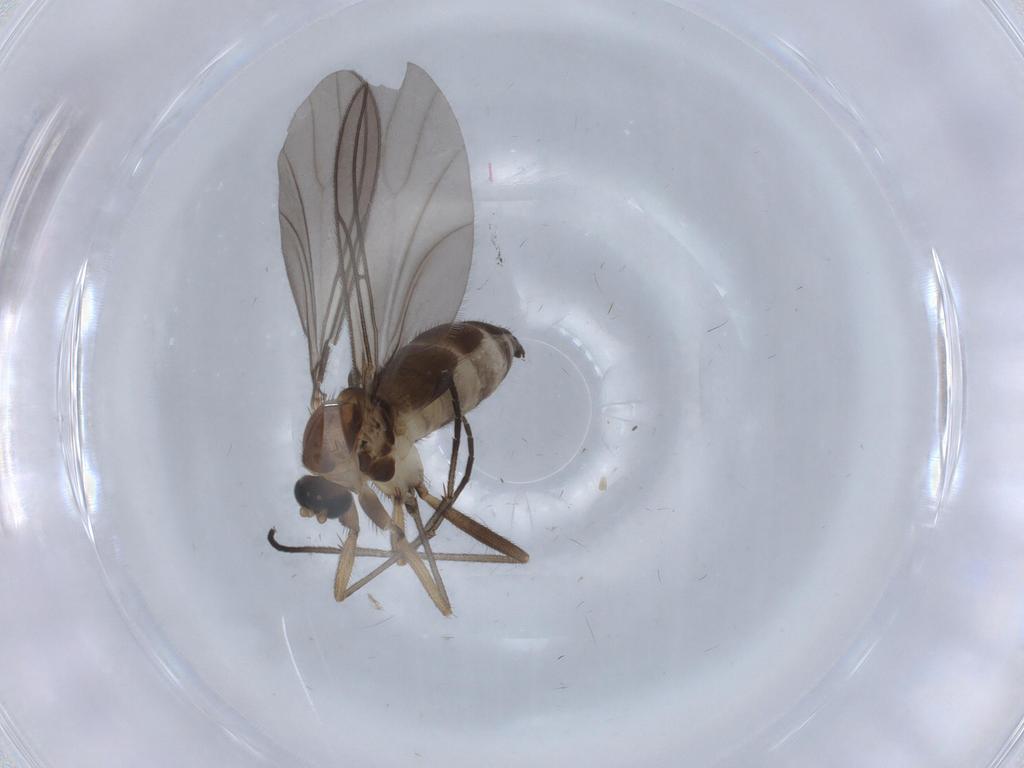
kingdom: Animalia
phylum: Arthropoda
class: Insecta
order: Diptera
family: Sciaridae
